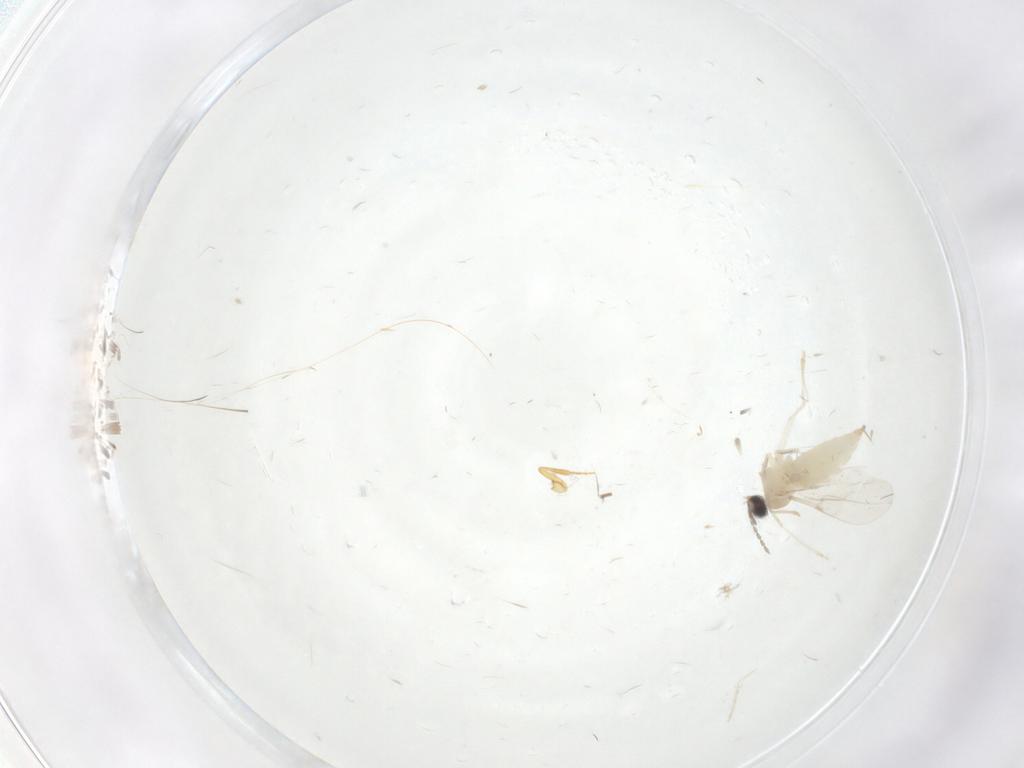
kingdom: Animalia
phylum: Arthropoda
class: Insecta
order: Diptera
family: Cecidomyiidae
